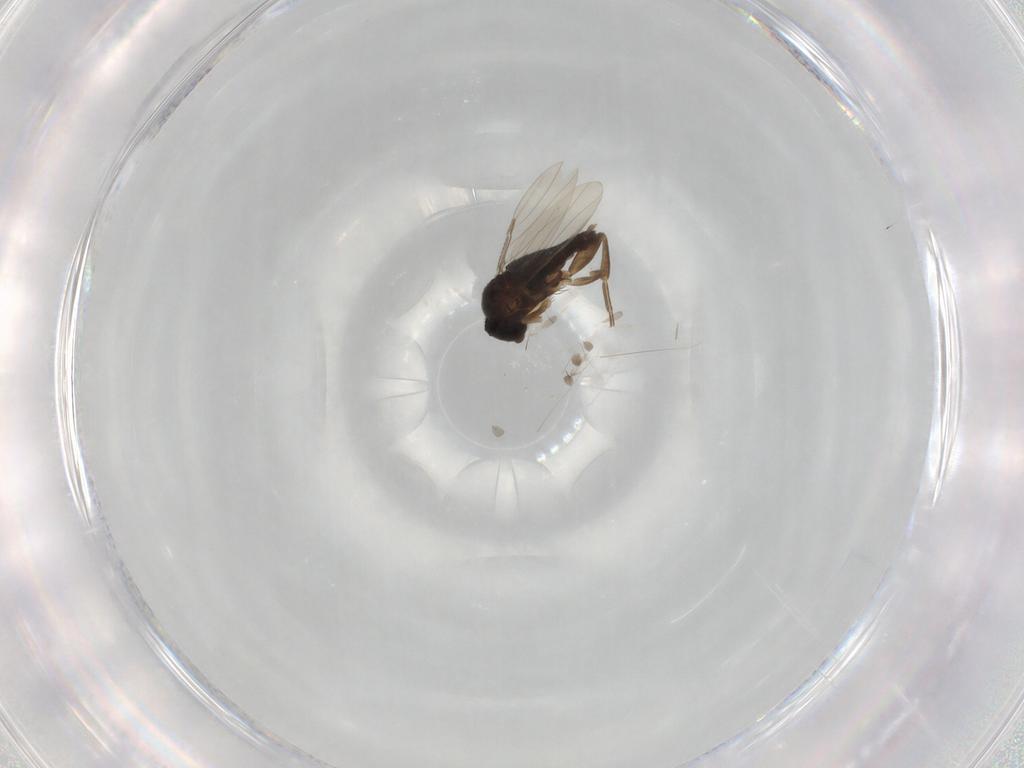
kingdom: Animalia
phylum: Arthropoda
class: Insecta
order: Diptera
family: Phoridae
